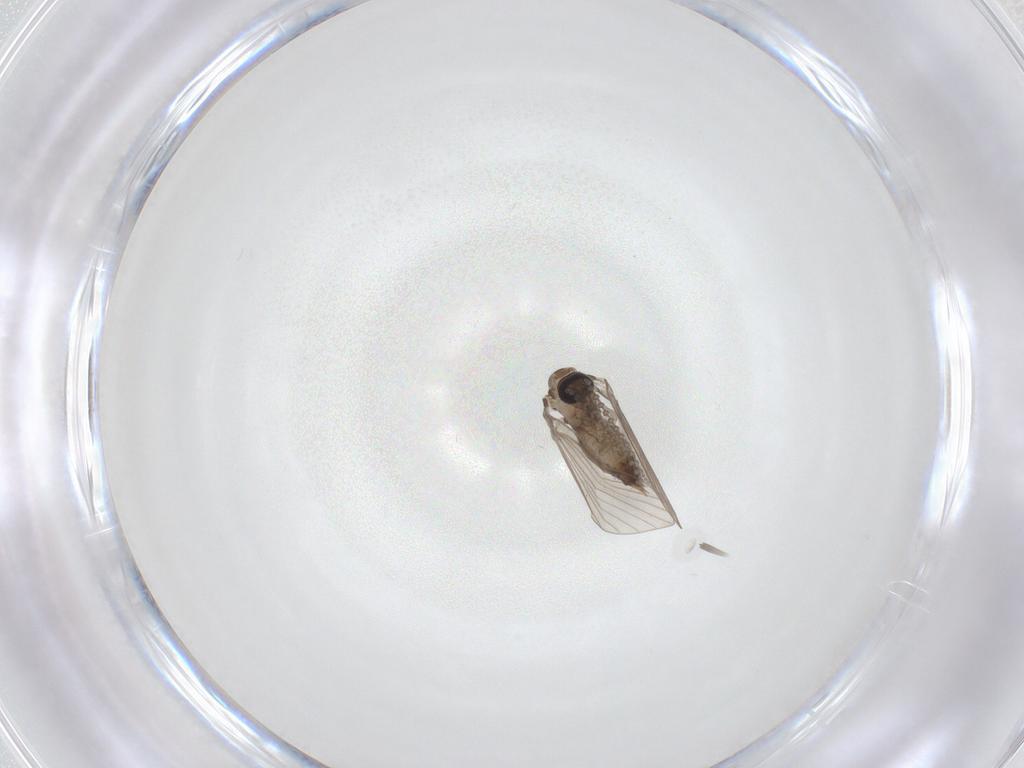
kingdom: Animalia
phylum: Arthropoda
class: Insecta
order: Diptera
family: Psychodidae
